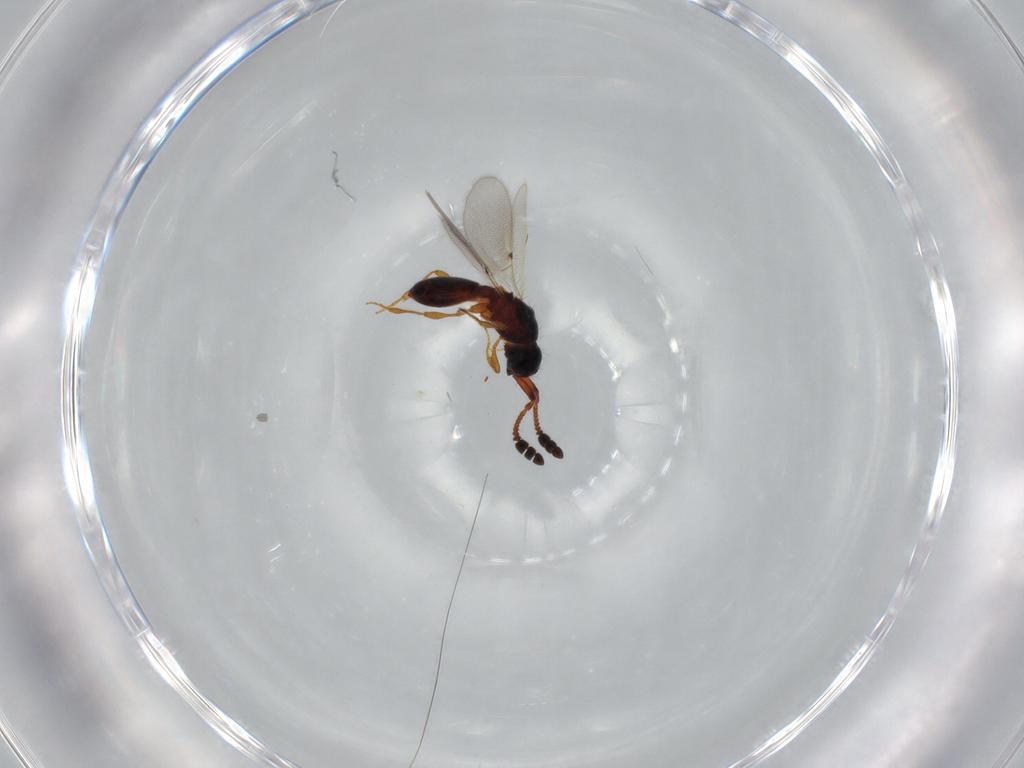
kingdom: Animalia
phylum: Arthropoda
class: Insecta
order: Hymenoptera
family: Diapriidae
